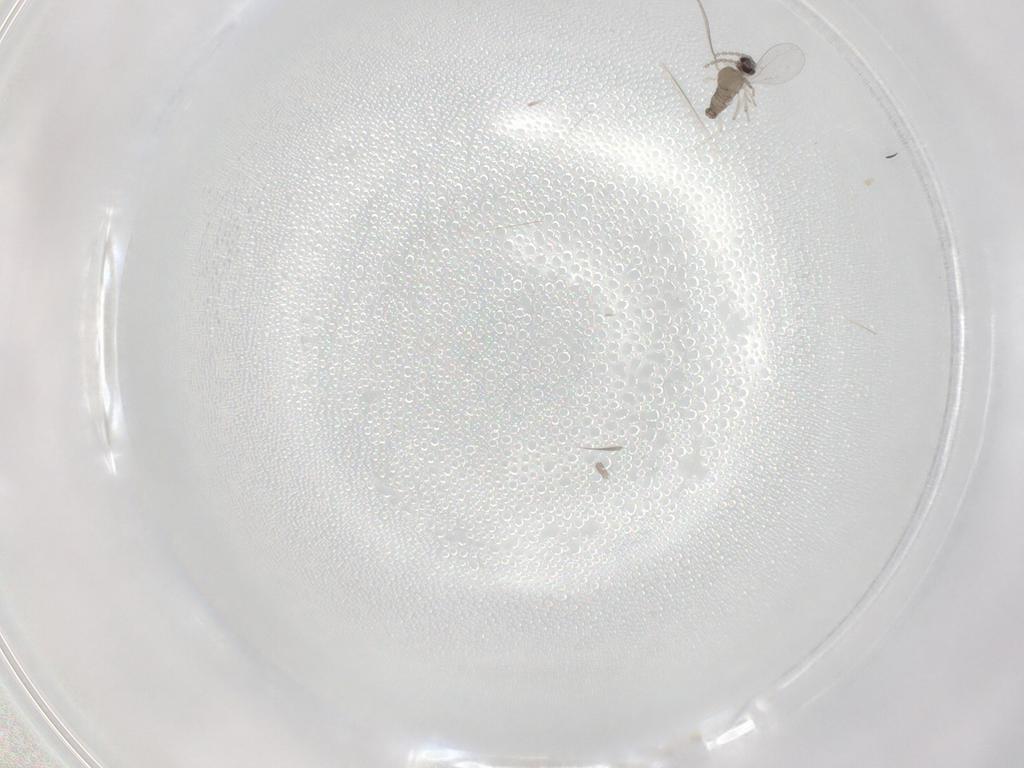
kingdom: Animalia
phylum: Arthropoda
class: Insecta
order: Diptera
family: Cecidomyiidae
